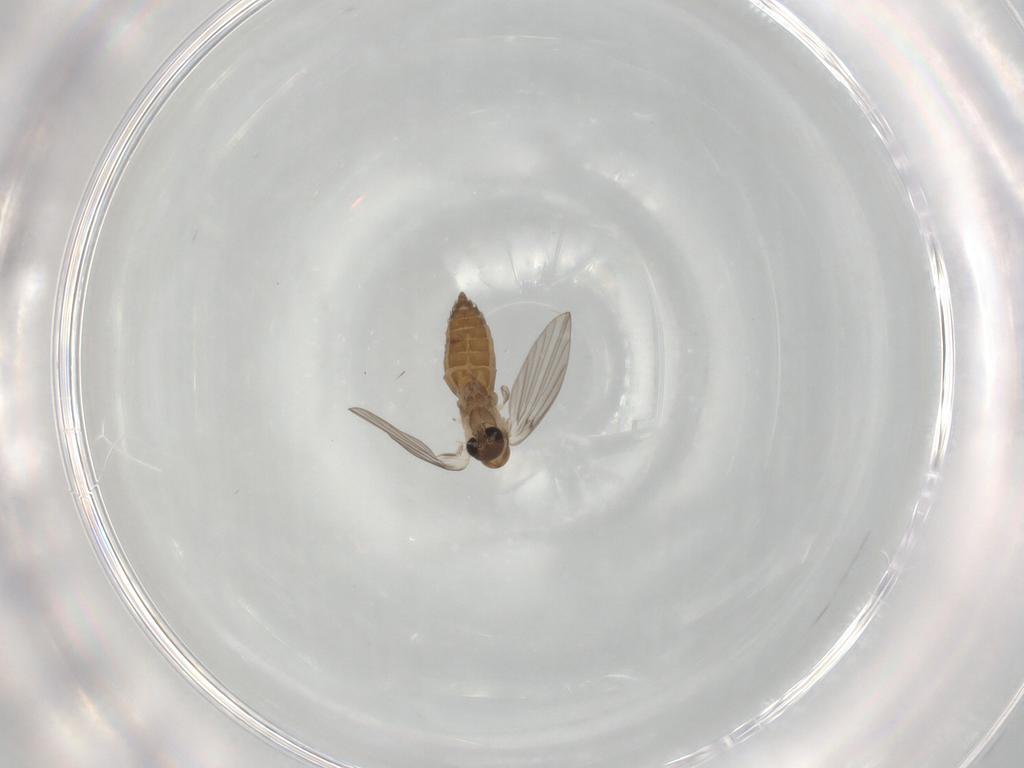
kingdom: Animalia
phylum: Arthropoda
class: Insecta
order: Diptera
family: Psychodidae
